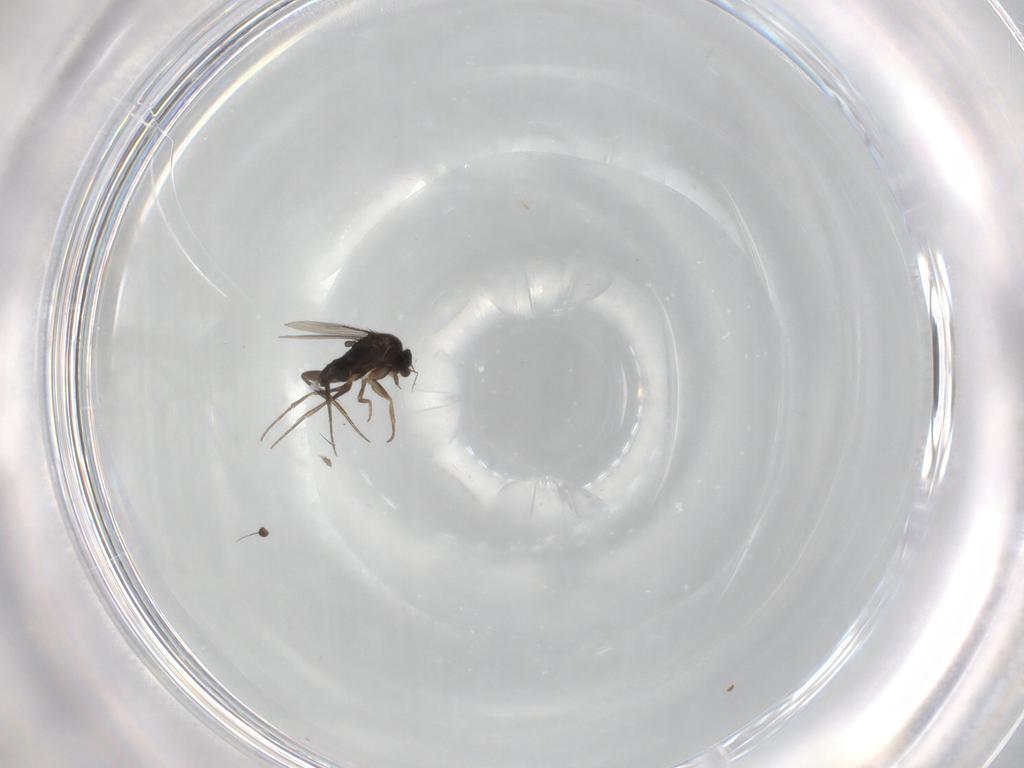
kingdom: Animalia
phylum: Arthropoda
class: Insecta
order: Diptera
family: Phoridae
